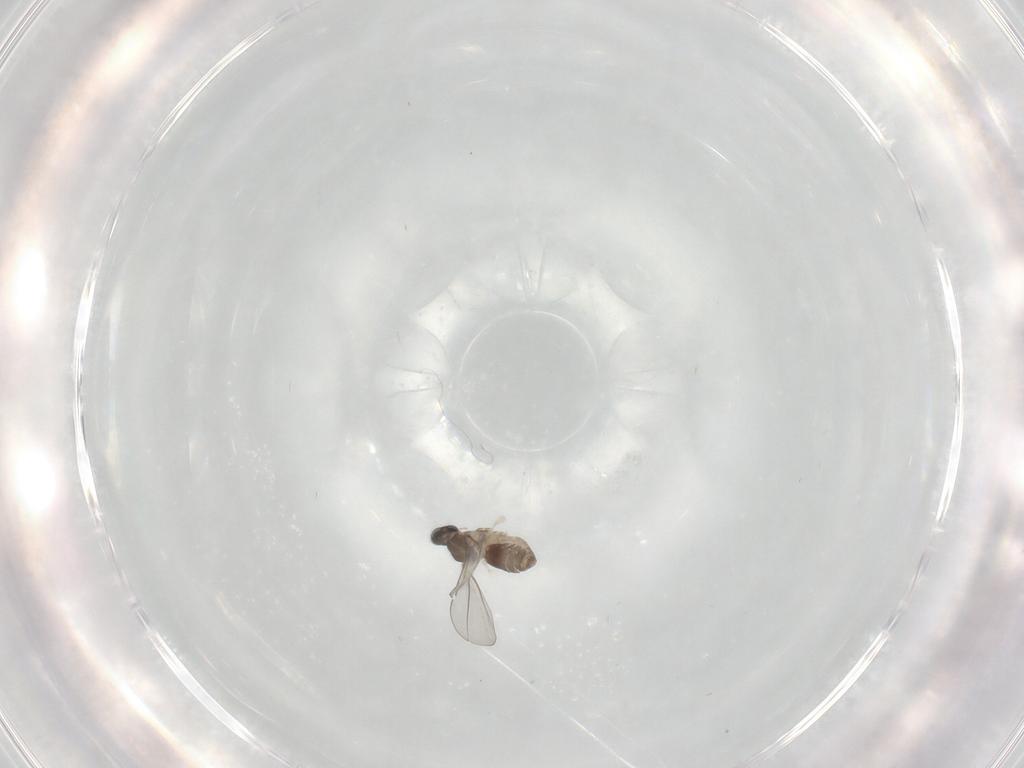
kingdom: Animalia
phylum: Arthropoda
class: Insecta
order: Diptera
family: Cecidomyiidae
